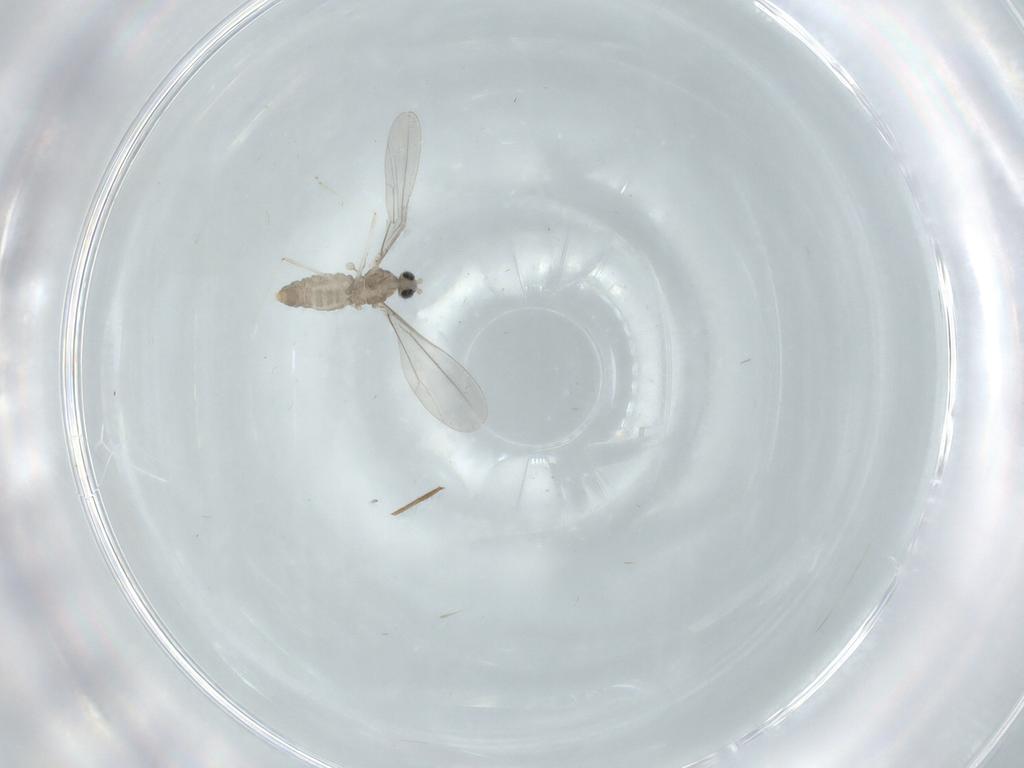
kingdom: Animalia
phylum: Arthropoda
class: Insecta
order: Diptera
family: Cecidomyiidae
